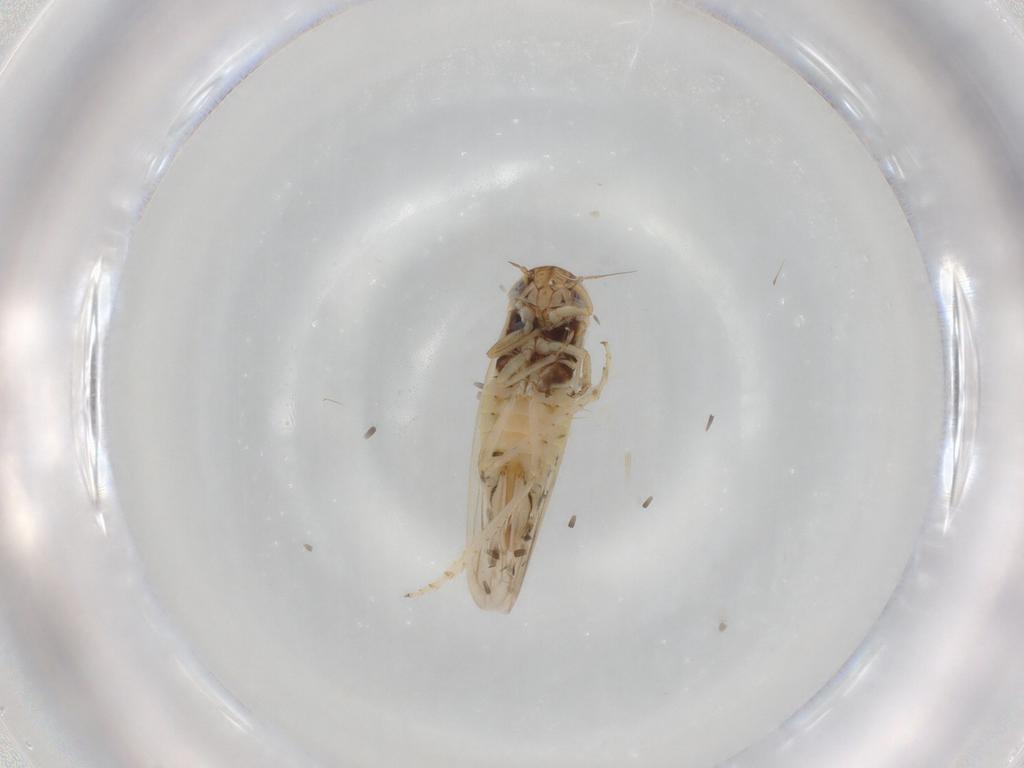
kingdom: Animalia
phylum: Arthropoda
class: Insecta
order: Hemiptera
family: Cicadellidae
